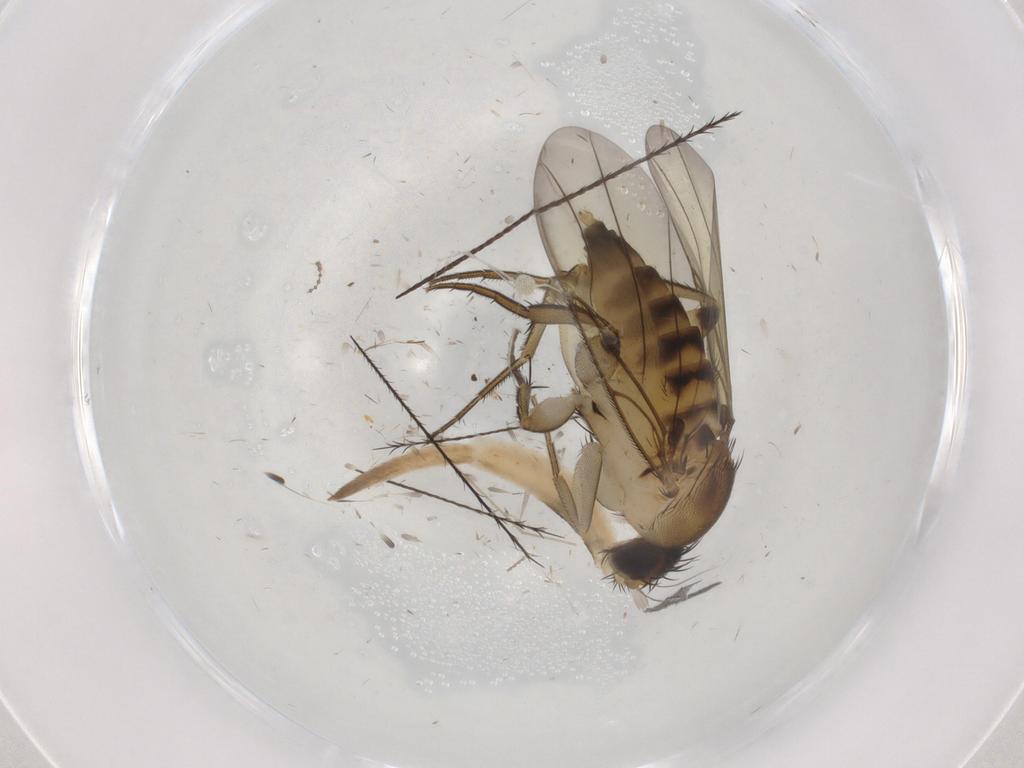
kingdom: Animalia
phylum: Arthropoda
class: Insecta
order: Diptera
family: Phoridae
